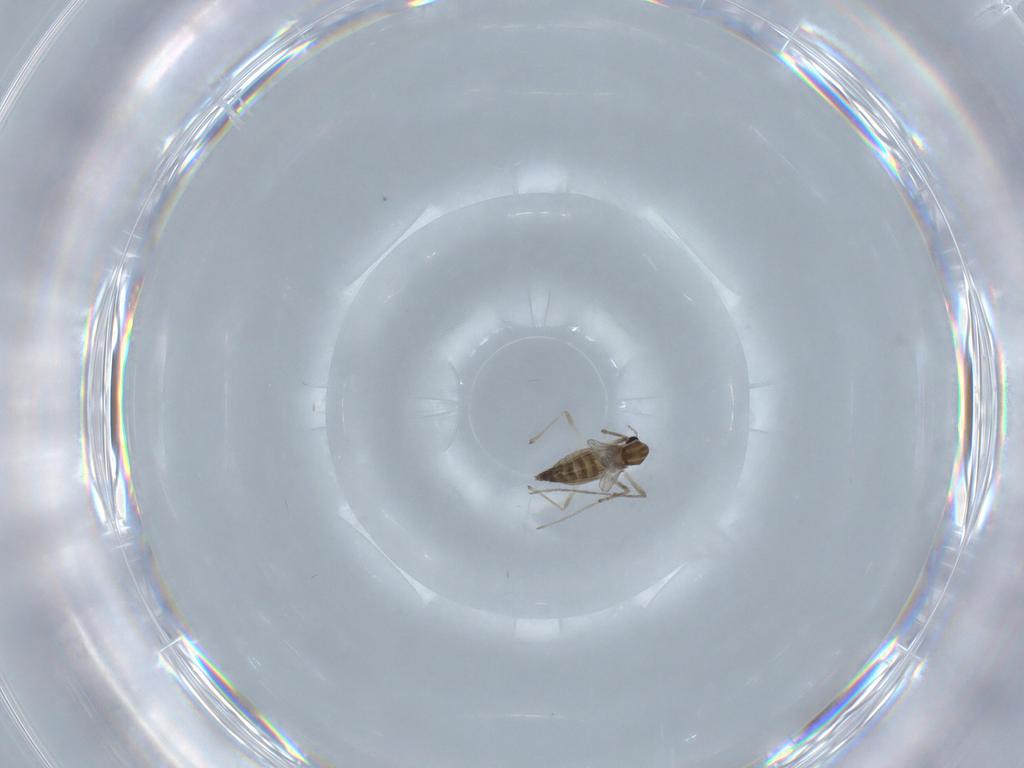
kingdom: Animalia
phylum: Arthropoda
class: Insecta
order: Diptera
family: Chironomidae
